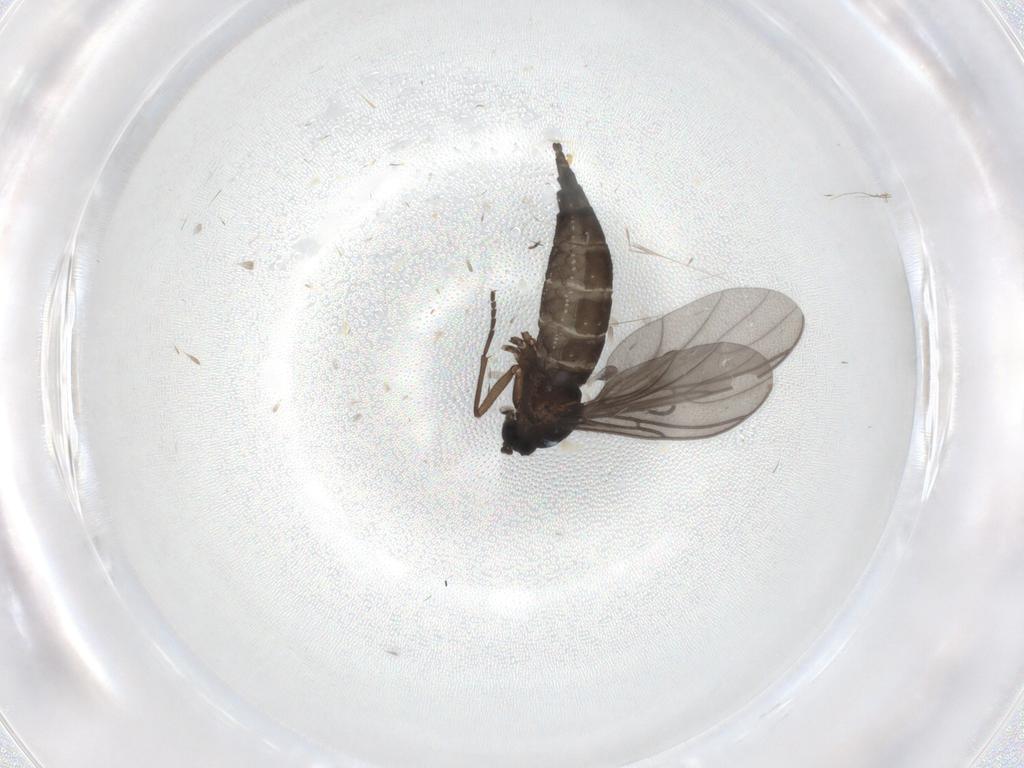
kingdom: Animalia
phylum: Arthropoda
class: Insecta
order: Diptera
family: Sciaridae
